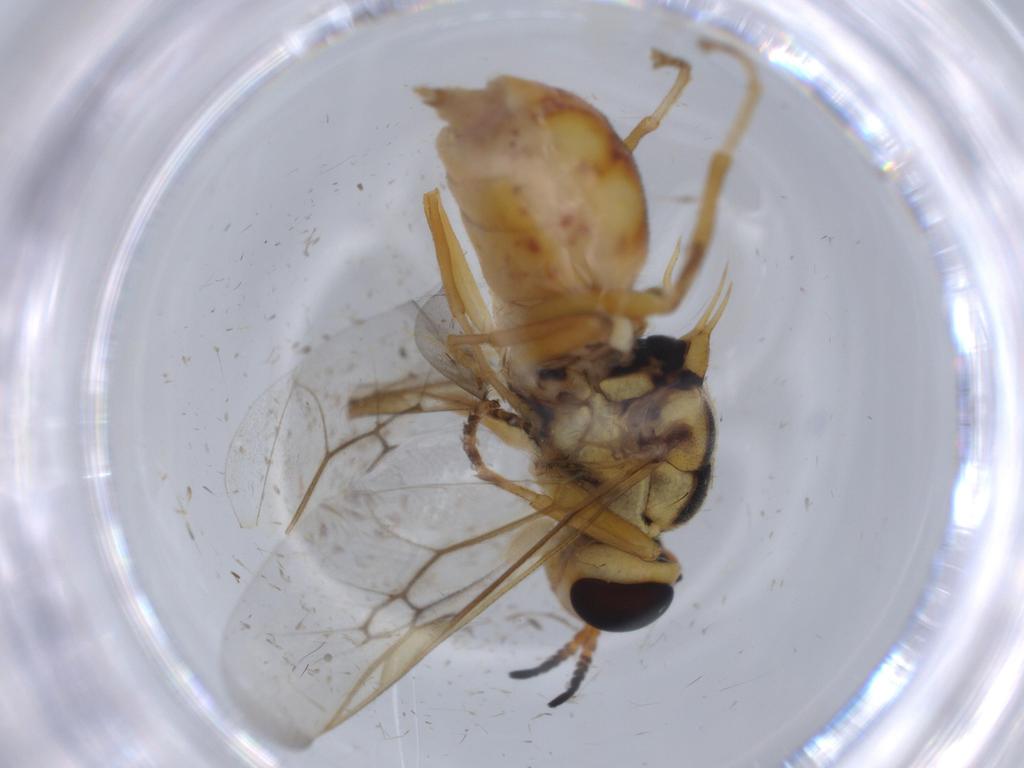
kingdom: Animalia
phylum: Arthropoda
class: Insecta
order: Diptera
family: Stratiomyidae
